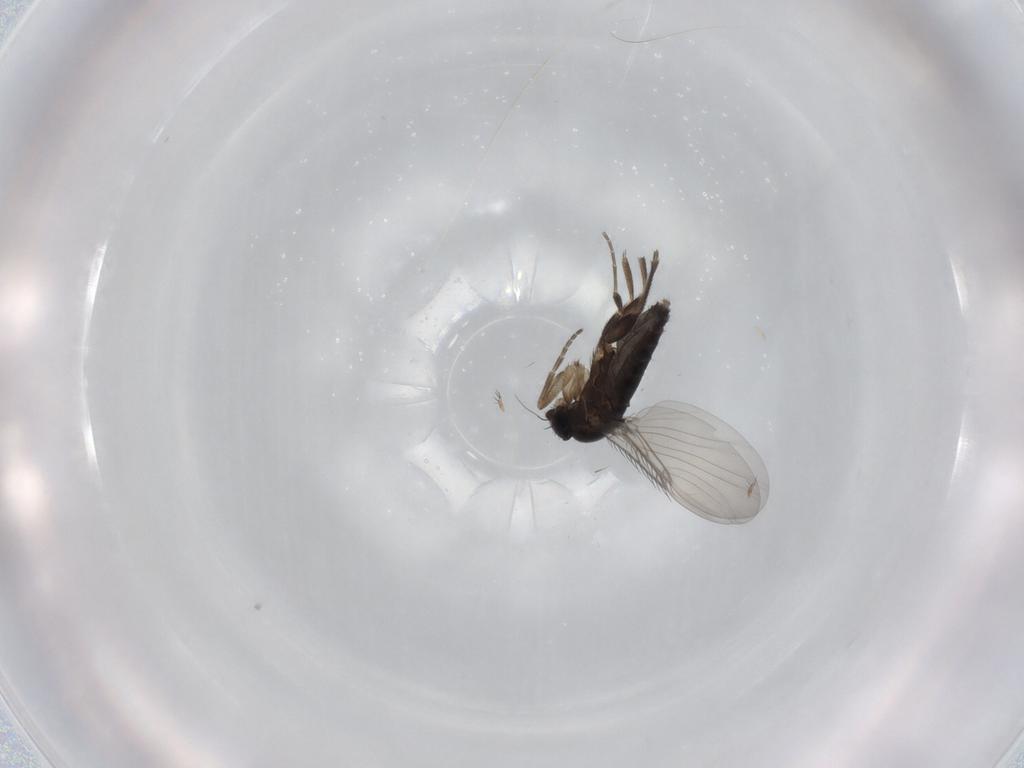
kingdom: Animalia
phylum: Arthropoda
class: Insecta
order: Diptera
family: Phoridae
